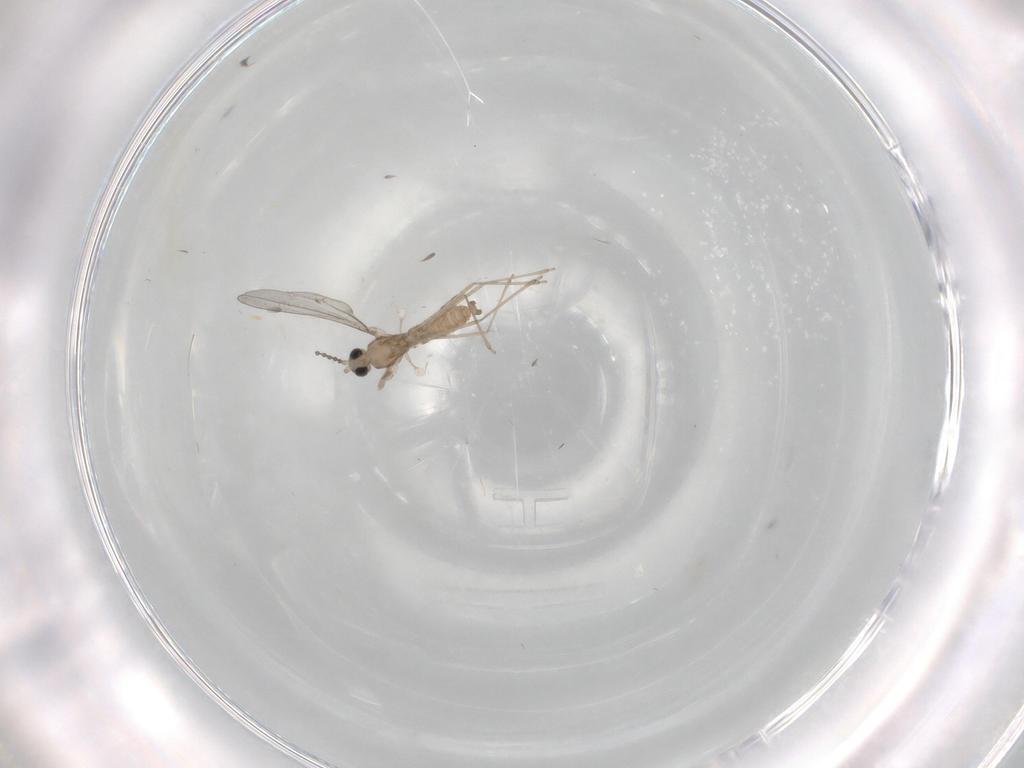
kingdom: Animalia
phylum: Arthropoda
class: Insecta
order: Diptera
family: Cecidomyiidae
